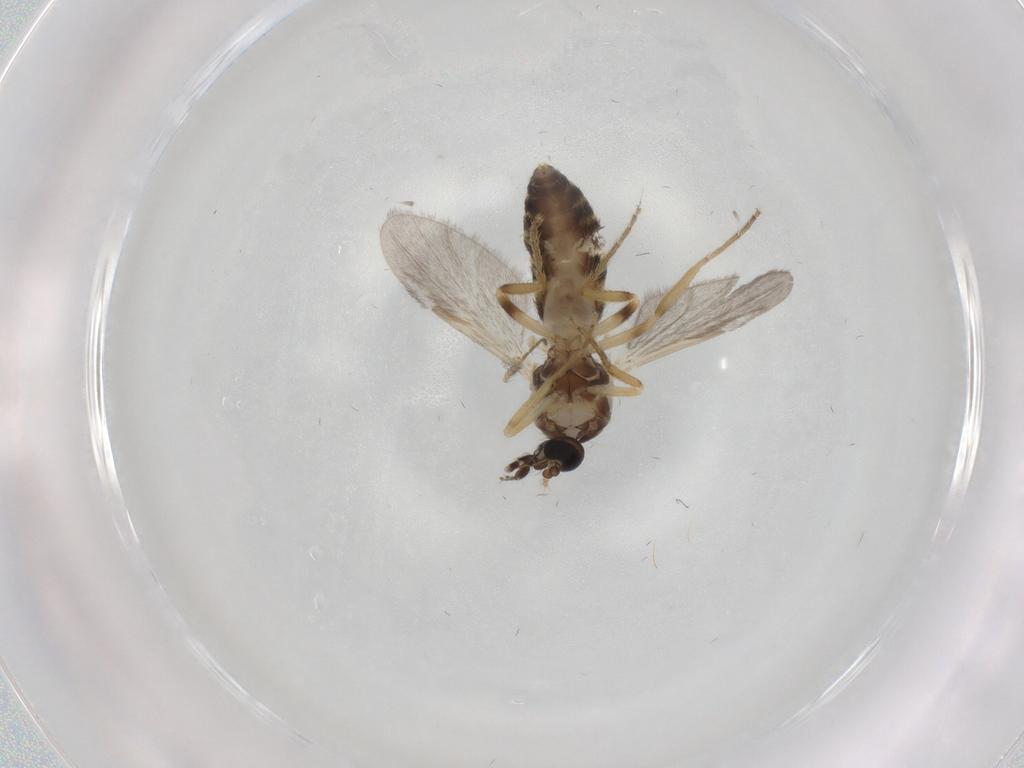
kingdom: Animalia
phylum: Arthropoda
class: Insecta
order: Diptera
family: Ceratopogonidae
